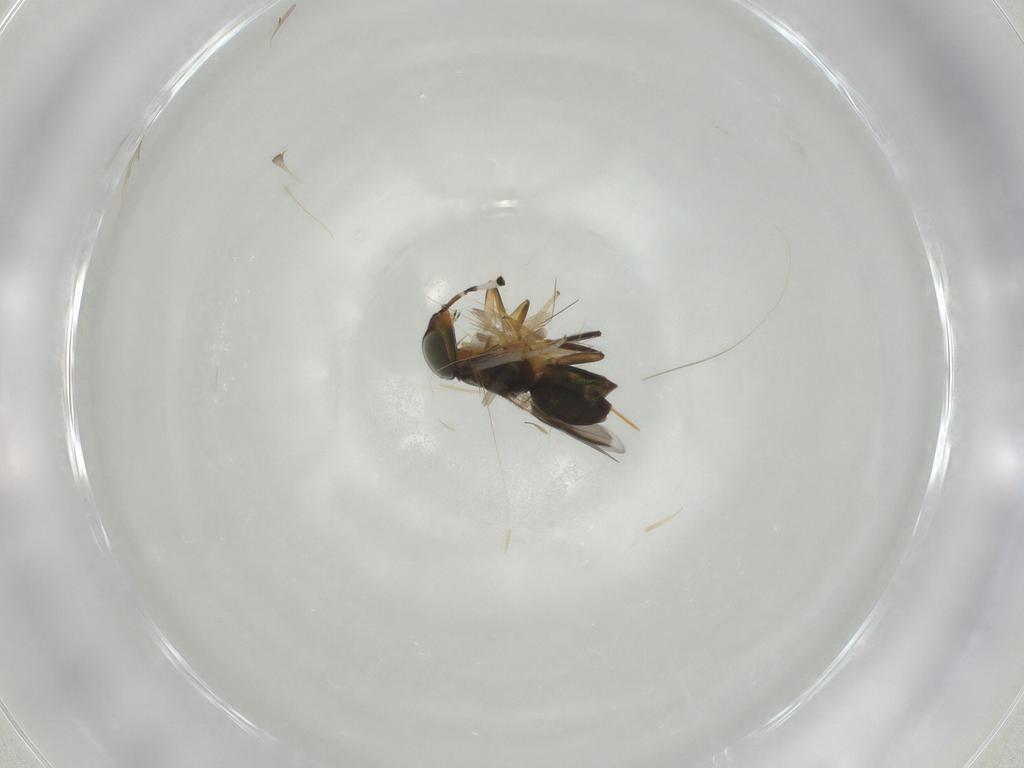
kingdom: Animalia
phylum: Arthropoda
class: Insecta
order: Hymenoptera
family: Encyrtidae
